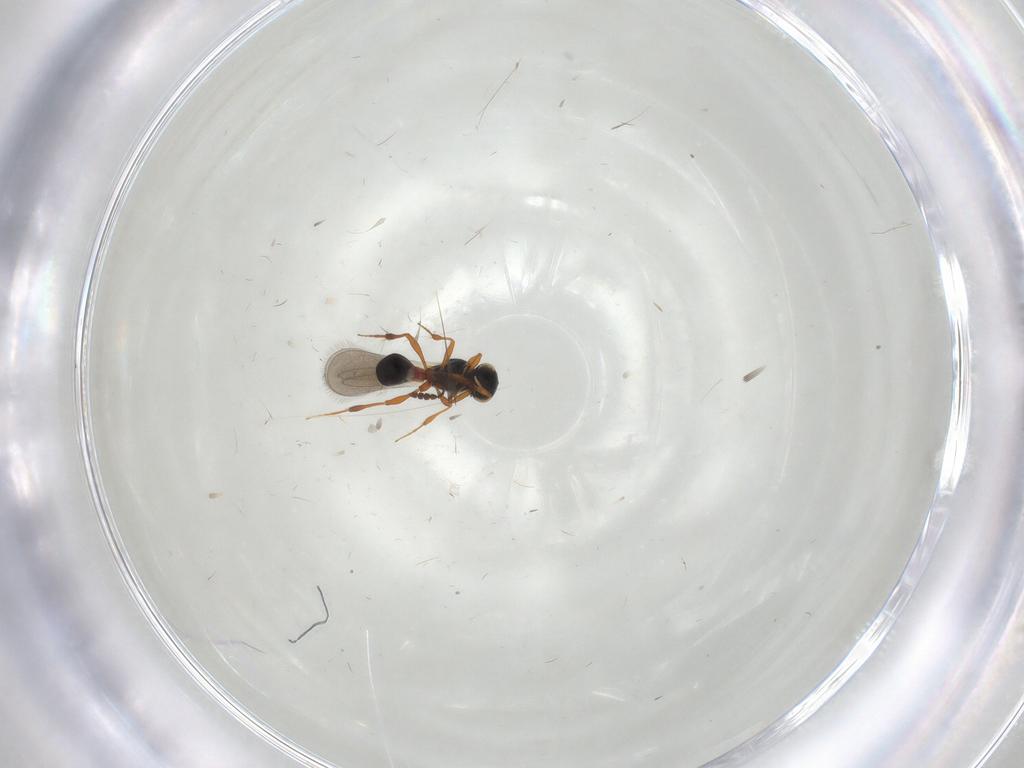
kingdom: Animalia
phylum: Arthropoda
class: Insecta
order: Hymenoptera
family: Platygastridae
